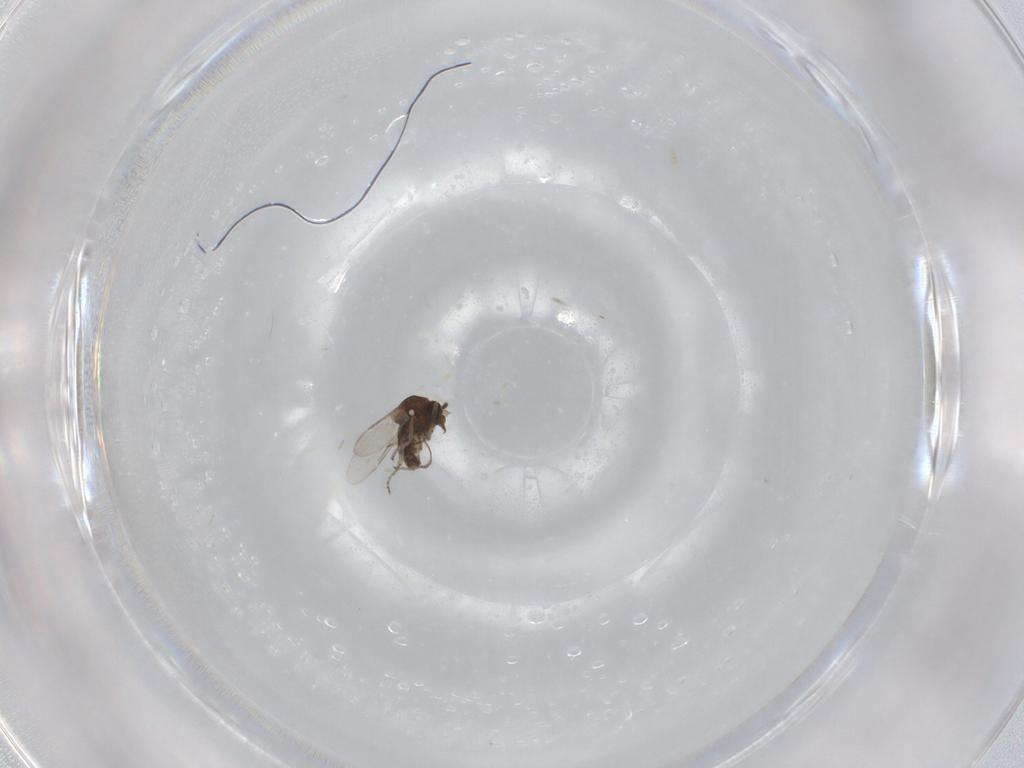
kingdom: Animalia
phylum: Arthropoda
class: Insecta
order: Diptera
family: Ceratopogonidae
